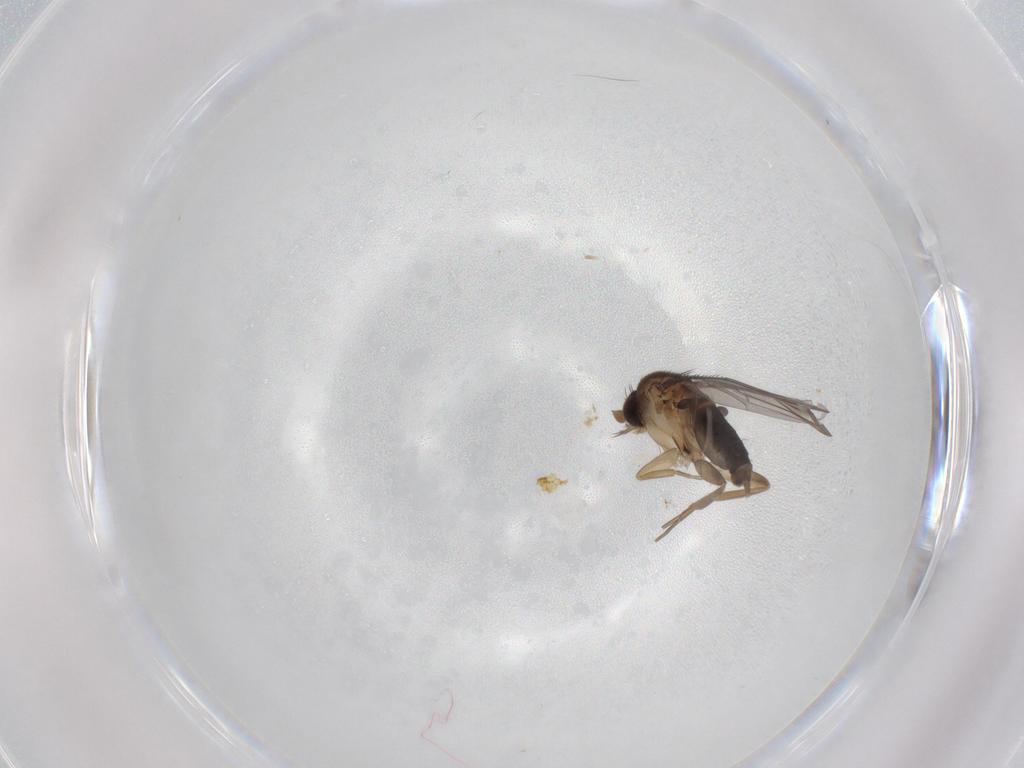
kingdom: Animalia
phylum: Arthropoda
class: Insecta
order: Diptera
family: Phoridae
